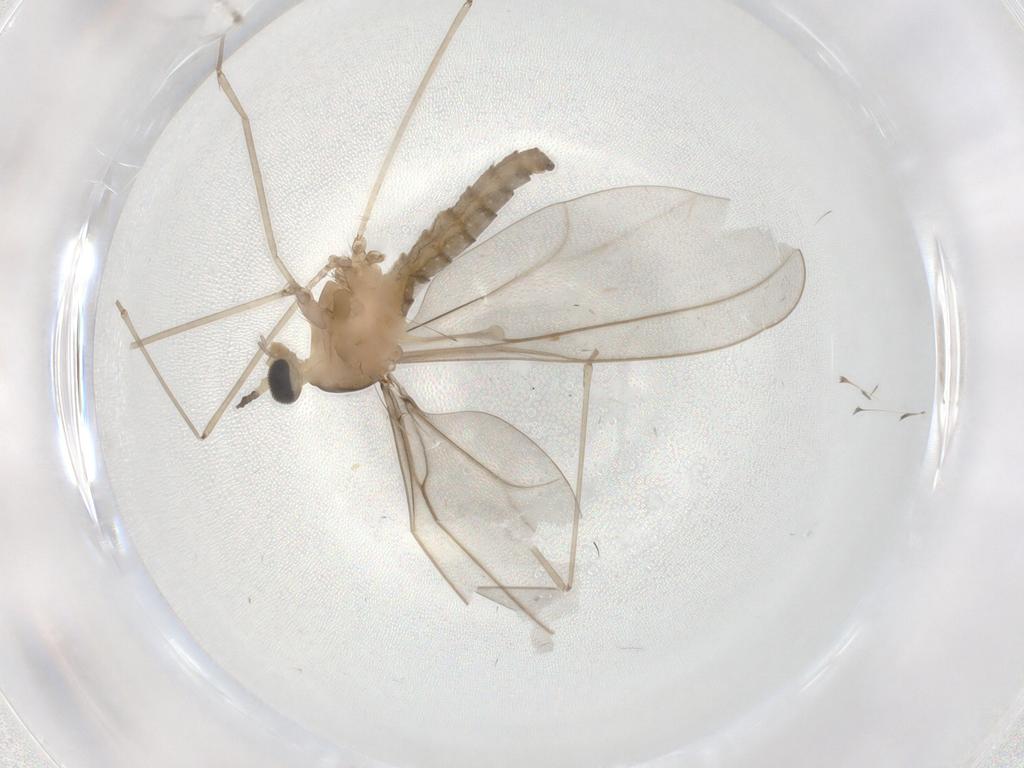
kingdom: Animalia
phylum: Arthropoda
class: Insecta
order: Diptera
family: Cecidomyiidae
